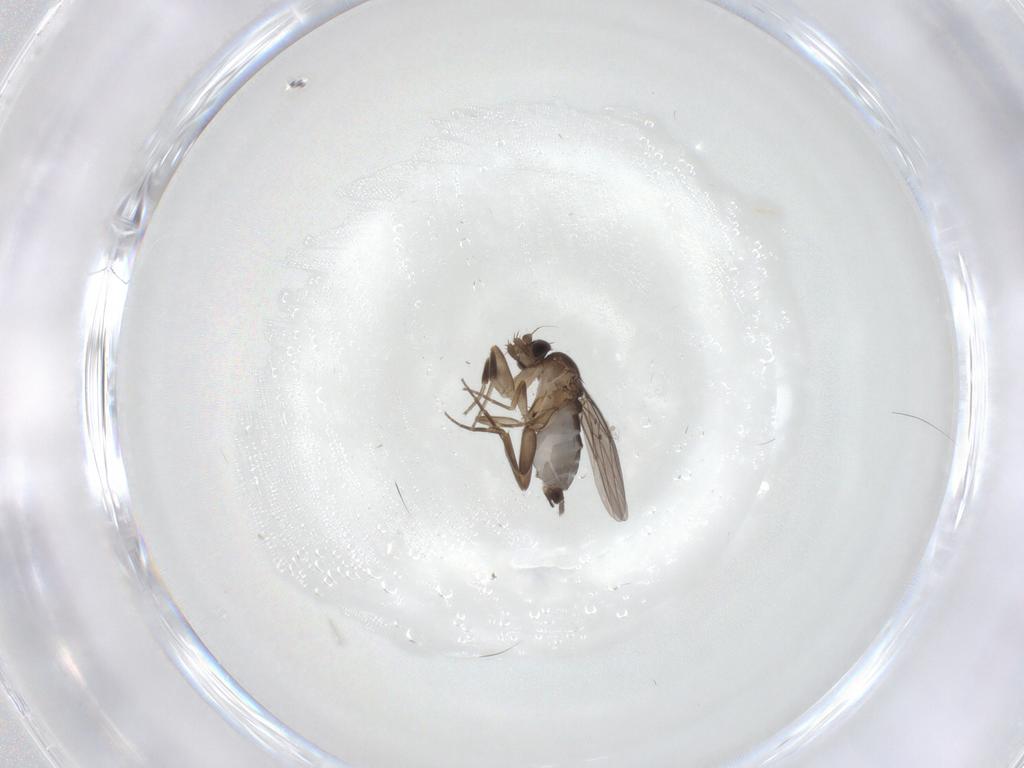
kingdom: Animalia
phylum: Arthropoda
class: Insecta
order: Diptera
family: Phoridae
